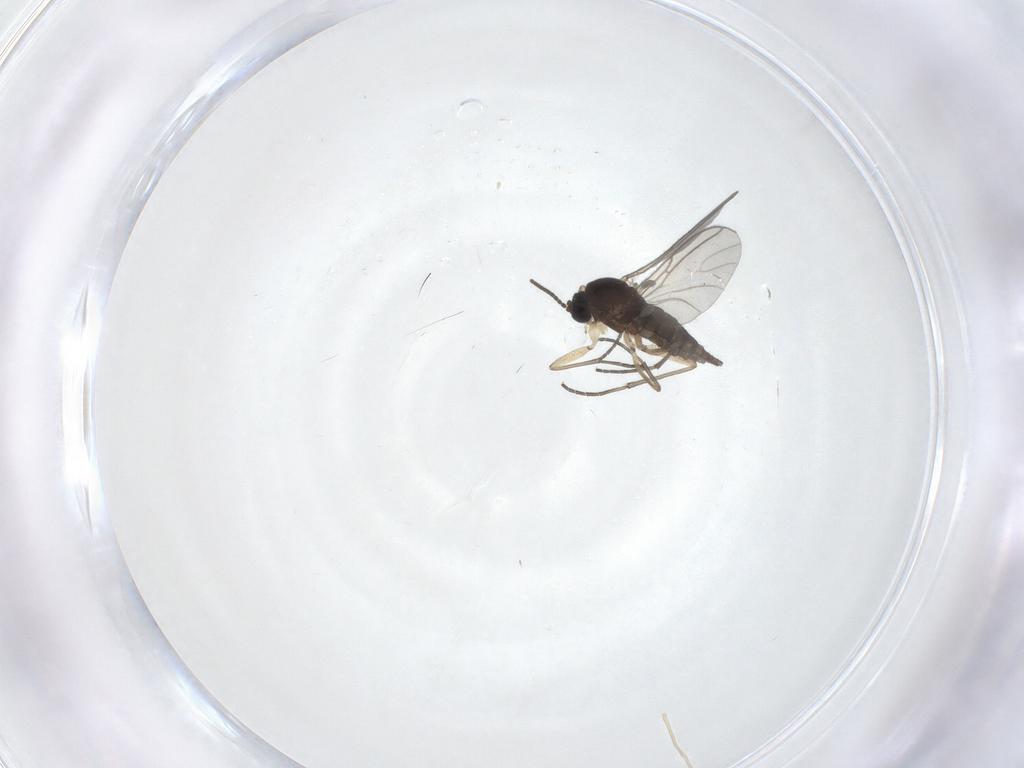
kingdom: Animalia
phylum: Arthropoda
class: Insecta
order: Diptera
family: Sciaridae
